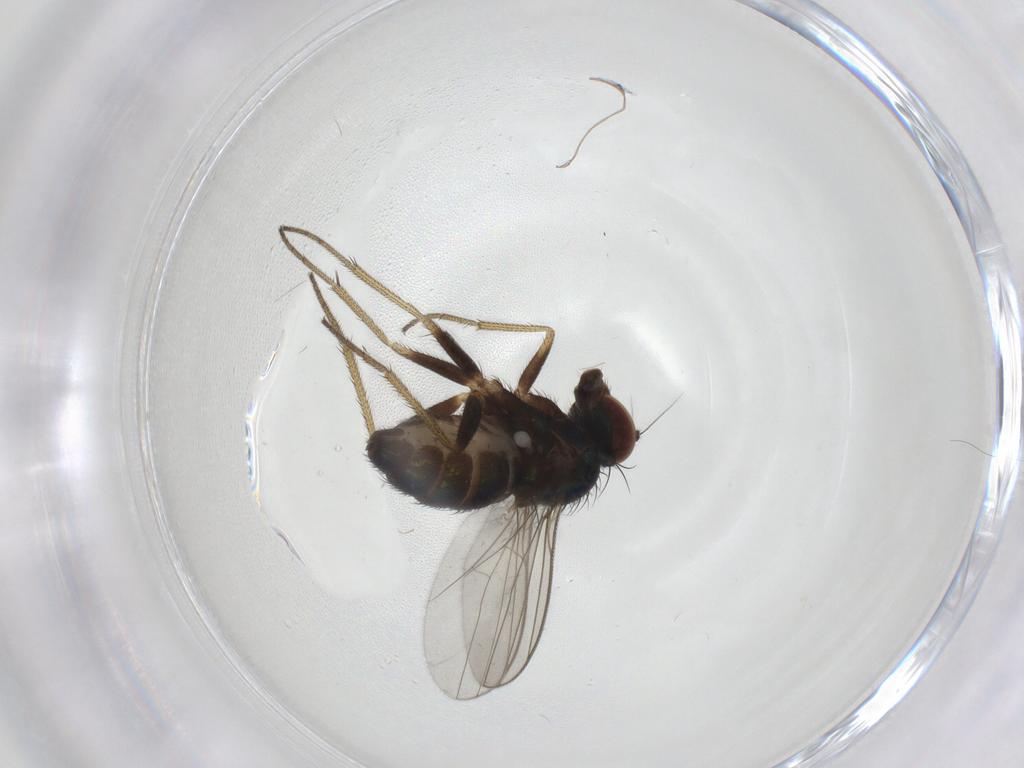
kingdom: Animalia
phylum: Arthropoda
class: Insecta
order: Diptera
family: Dolichopodidae
